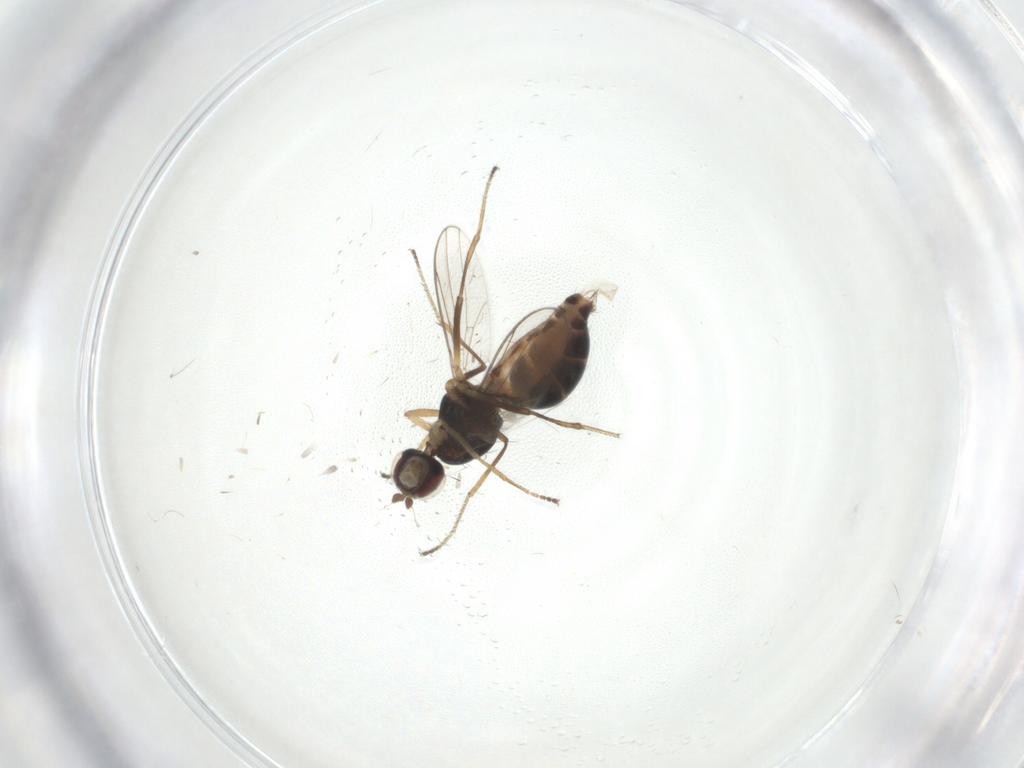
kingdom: Animalia
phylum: Arthropoda
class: Insecta
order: Diptera
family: Sepsidae
